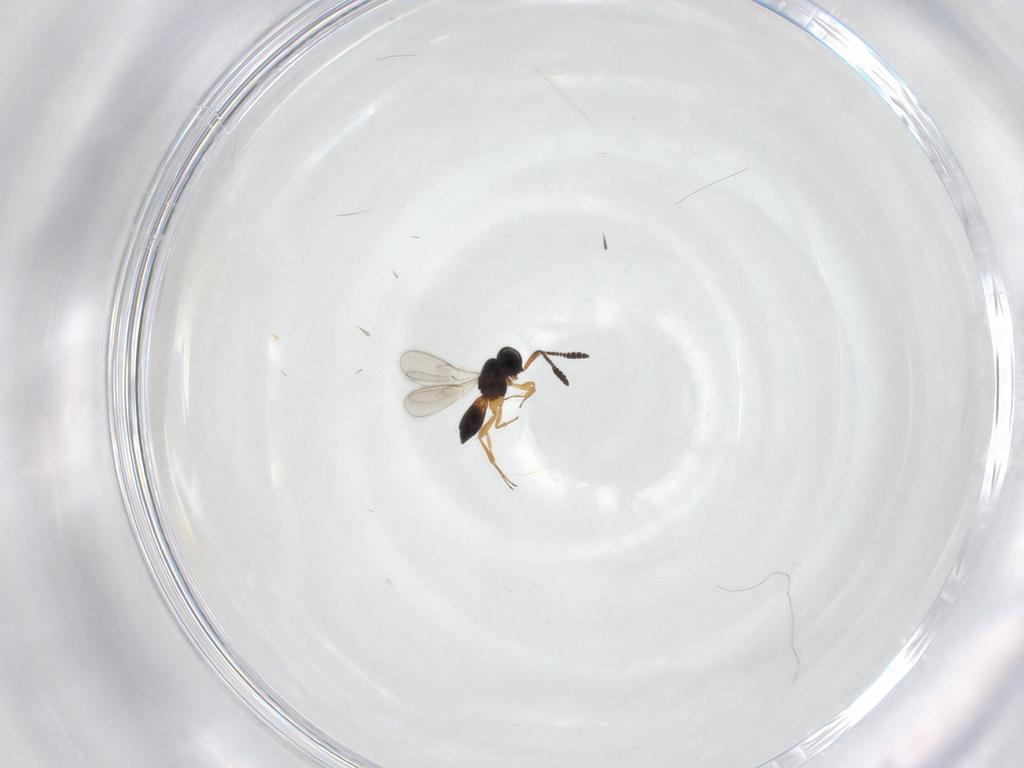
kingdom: Animalia
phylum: Arthropoda
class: Insecta
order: Hymenoptera
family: Scelionidae
